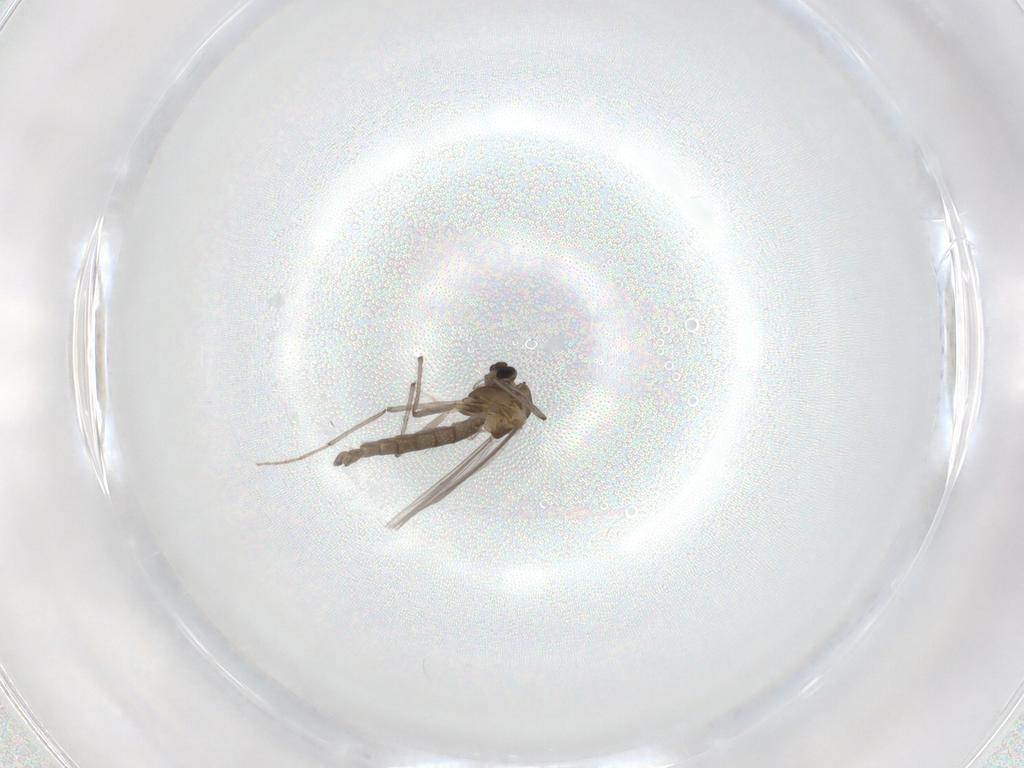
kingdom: Animalia
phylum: Arthropoda
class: Insecta
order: Diptera
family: Chironomidae
